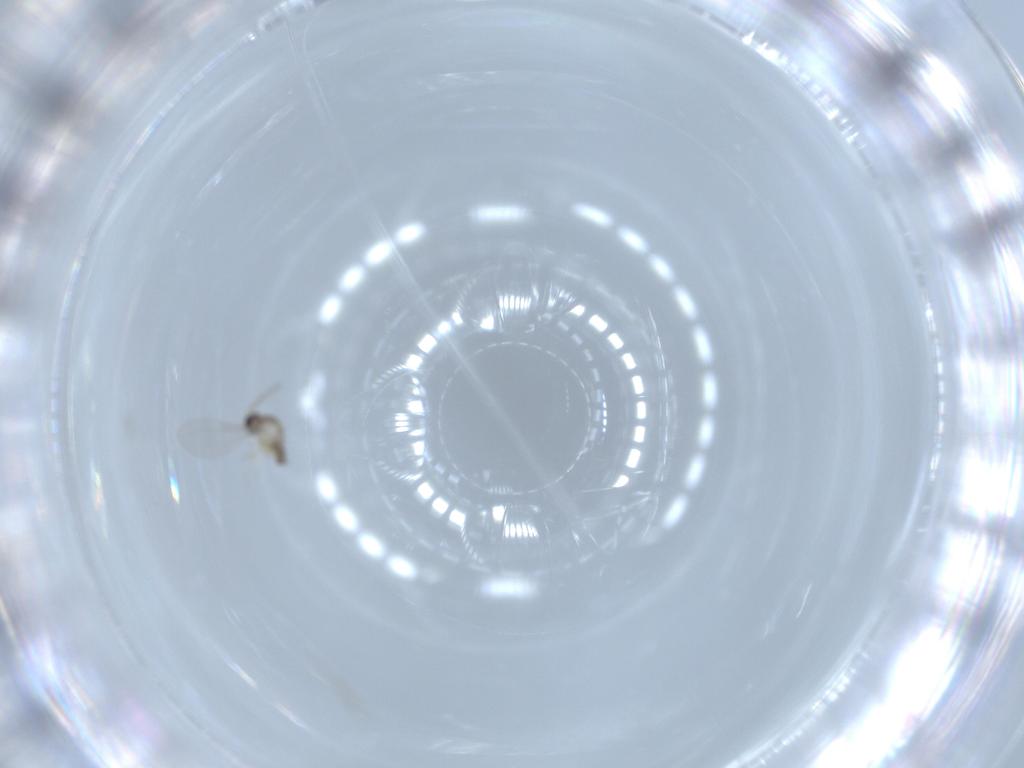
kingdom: Animalia
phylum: Arthropoda
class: Insecta
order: Diptera
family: Cecidomyiidae
